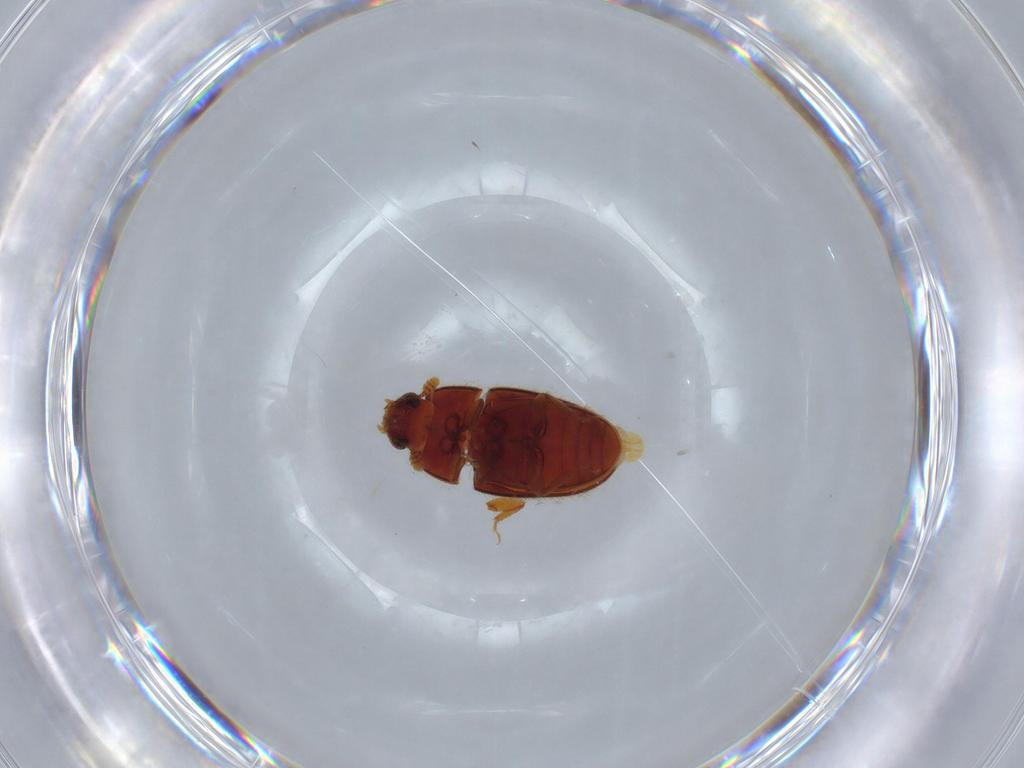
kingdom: Animalia
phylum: Arthropoda
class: Insecta
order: Coleoptera
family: Biphyllidae
